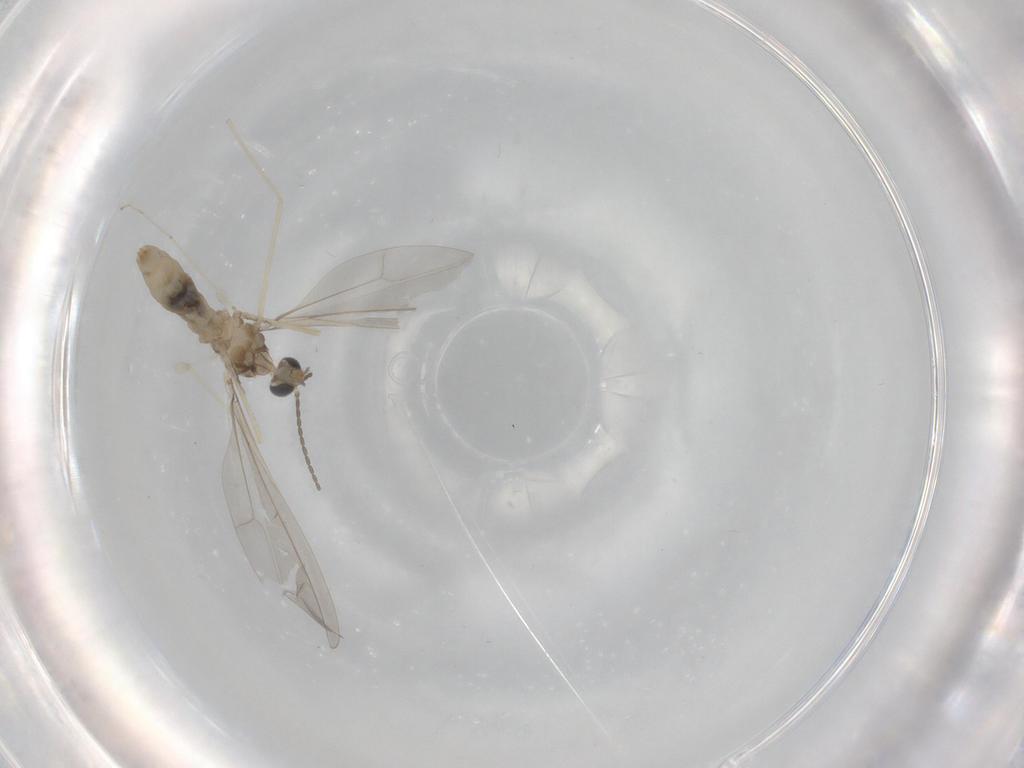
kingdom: Animalia
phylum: Arthropoda
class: Insecta
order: Diptera
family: Cecidomyiidae
